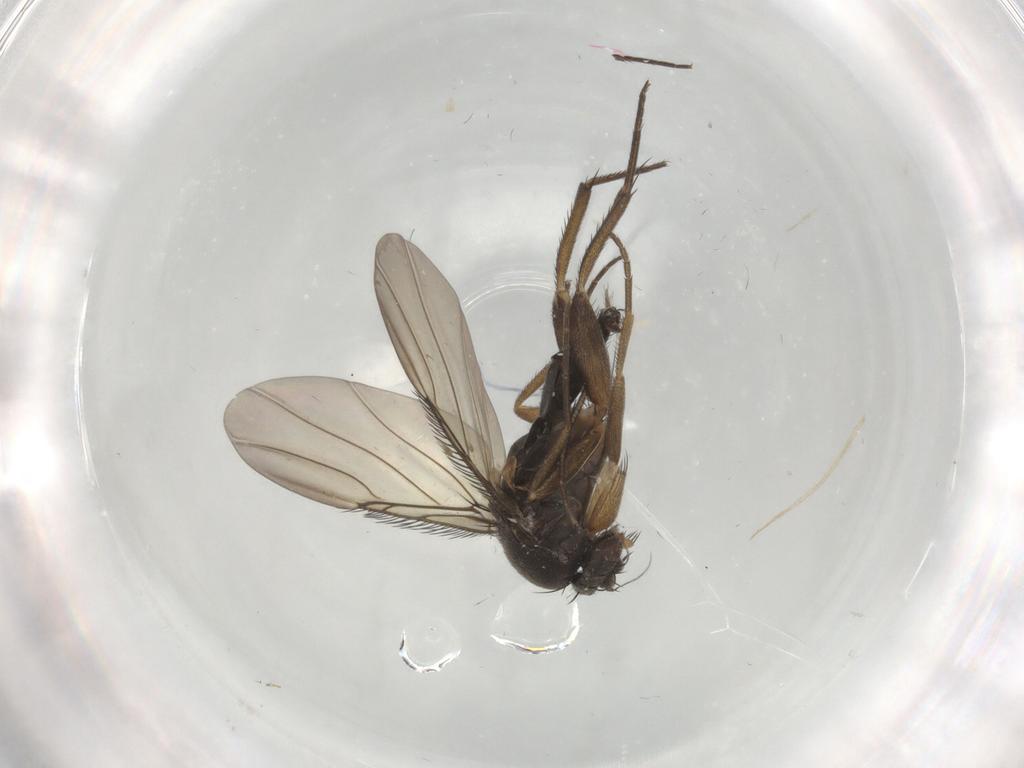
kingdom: Animalia
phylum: Arthropoda
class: Insecta
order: Diptera
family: Phoridae
